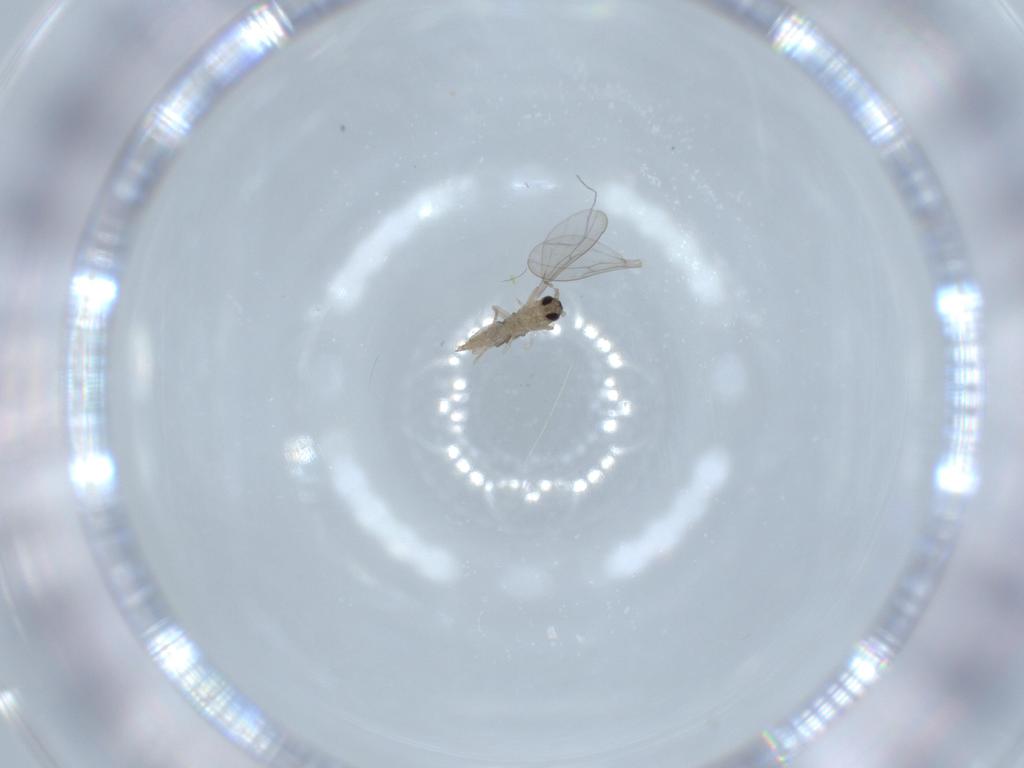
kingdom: Animalia
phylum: Arthropoda
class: Insecta
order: Diptera
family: Cecidomyiidae
